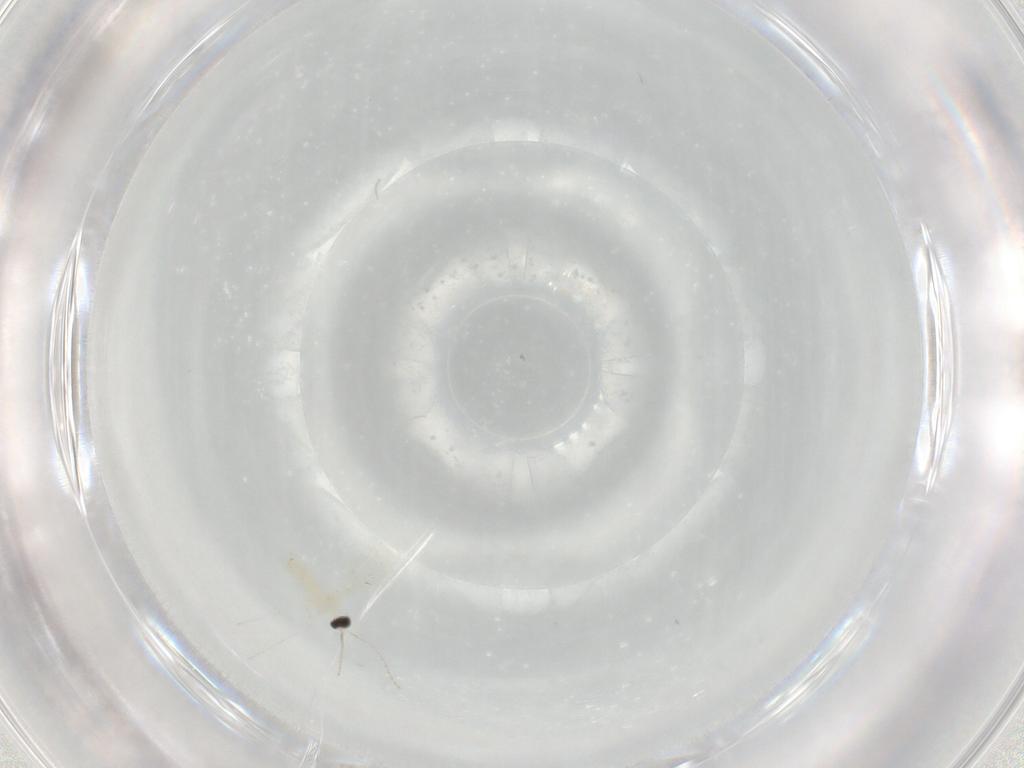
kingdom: Animalia
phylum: Arthropoda
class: Insecta
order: Diptera
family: Cecidomyiidae
